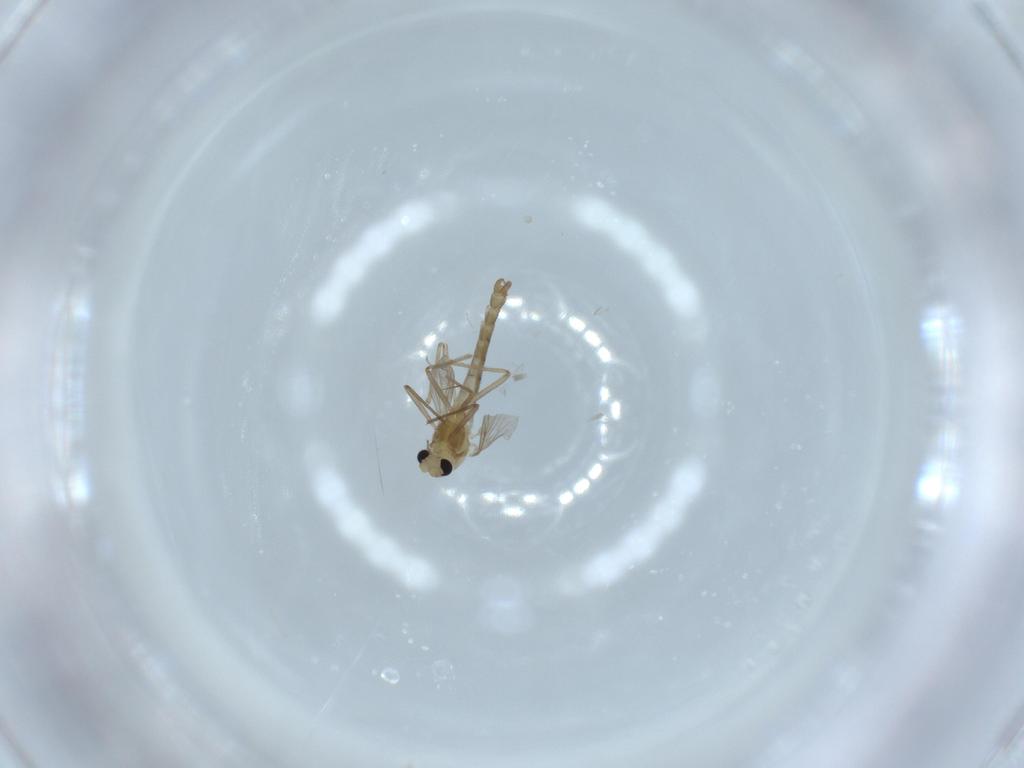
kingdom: Animalia
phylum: Arthropoda
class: Insecta
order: Diptera
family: Chironomidae
